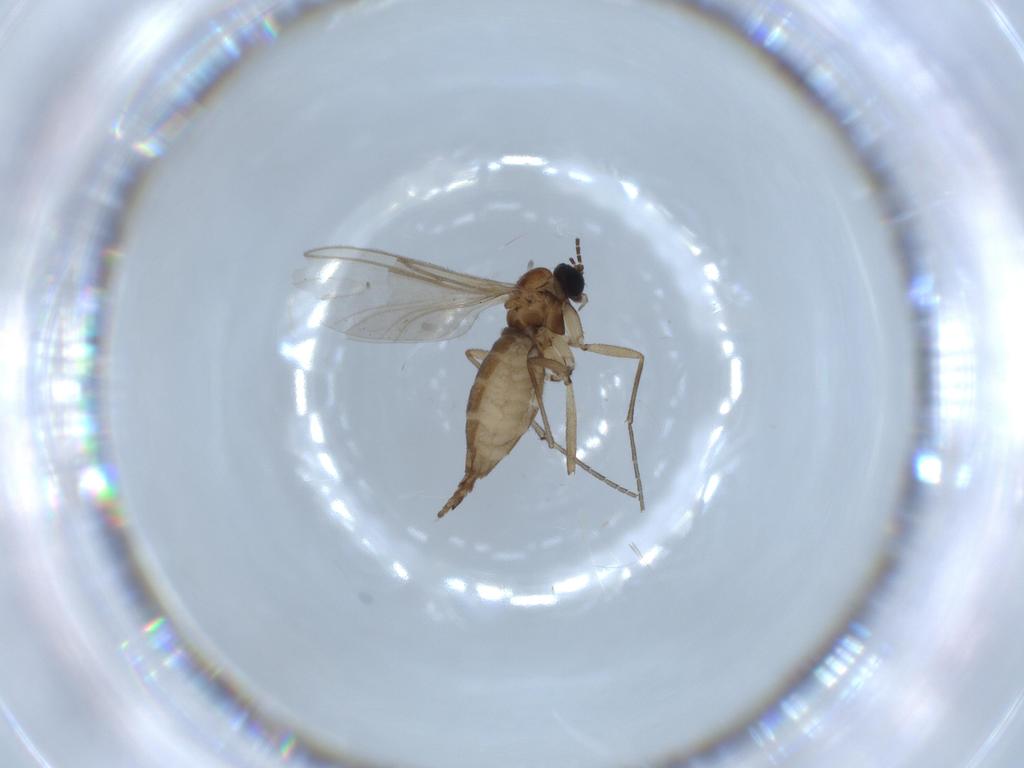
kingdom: Animalia
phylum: Arthropoda
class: Insecta
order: Diptera
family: Sciaridae
